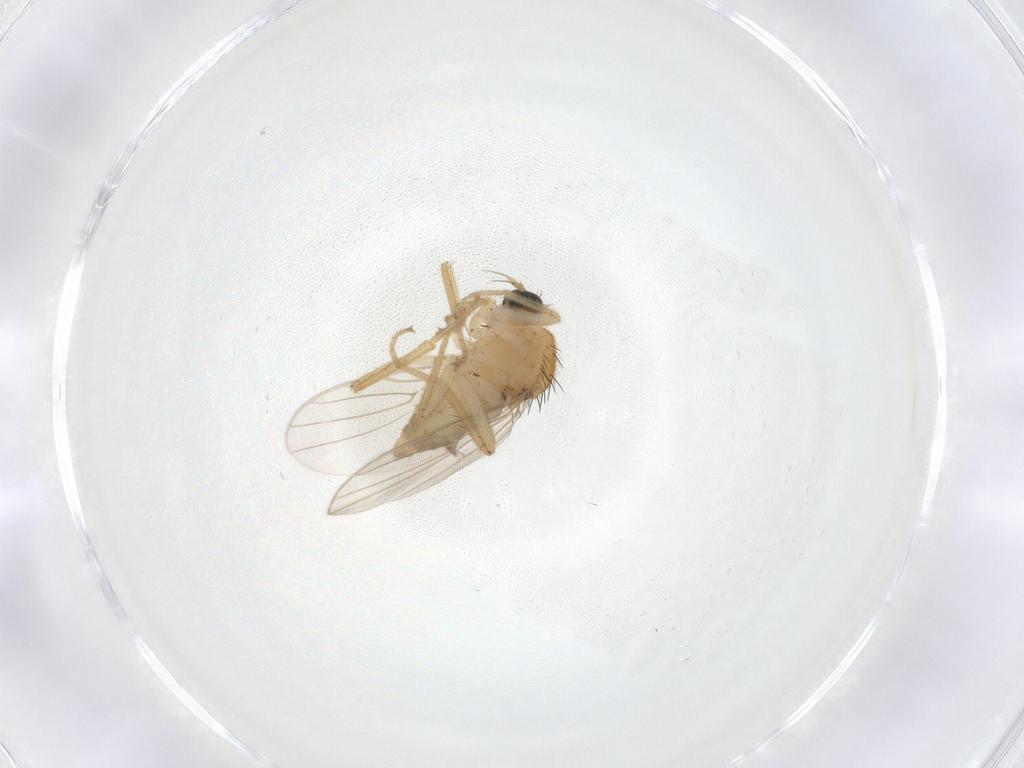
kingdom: Animalia
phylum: Arthropoda
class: Insecta
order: Diptera
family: Hybotidae
